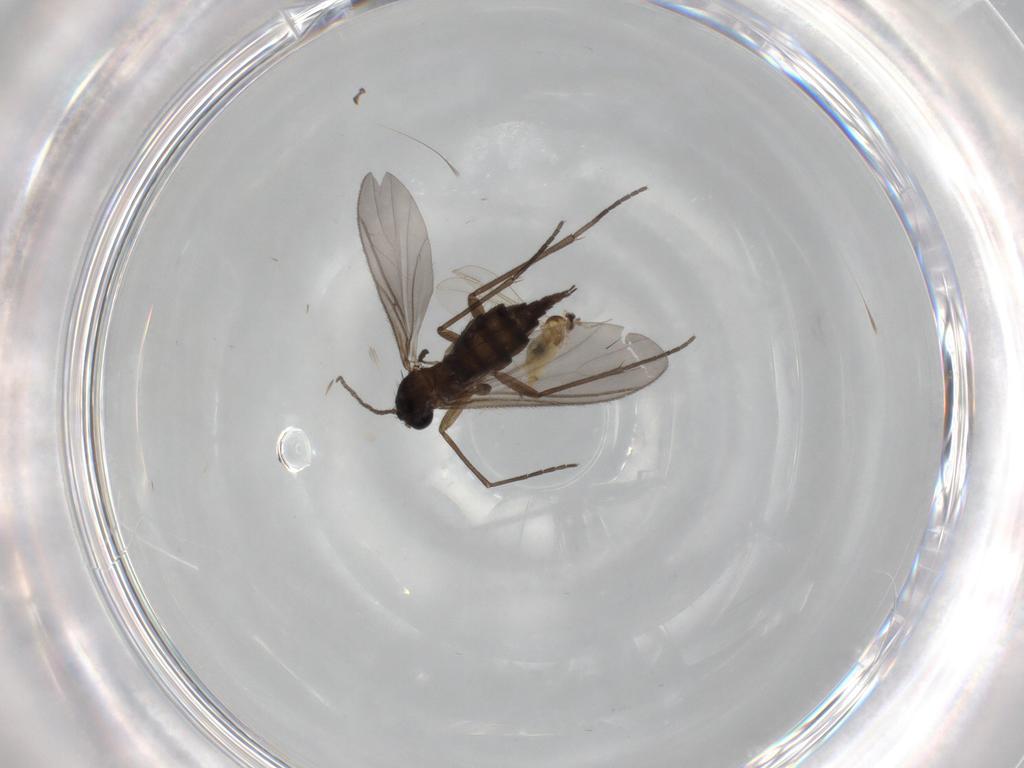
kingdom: Animalia
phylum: Arthropoda
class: Insecta
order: Diptera
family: Cecidomyiidae
